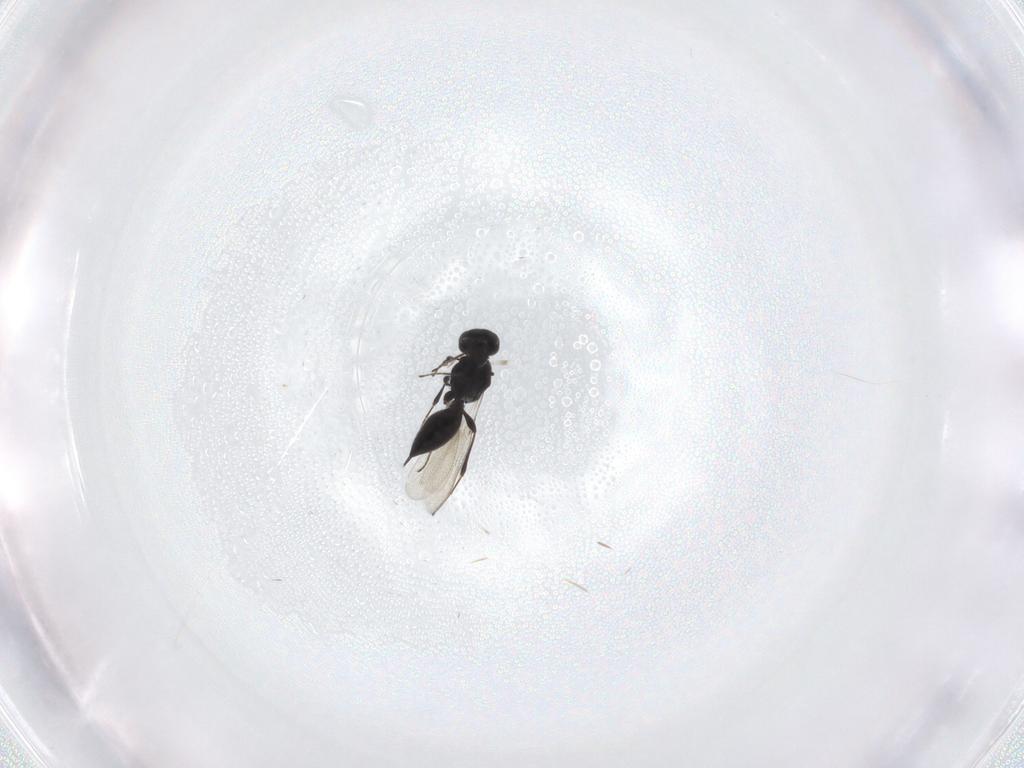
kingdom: Animalia
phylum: Arthropoda
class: Insecta
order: Hymenoptera
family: Platygastridae
